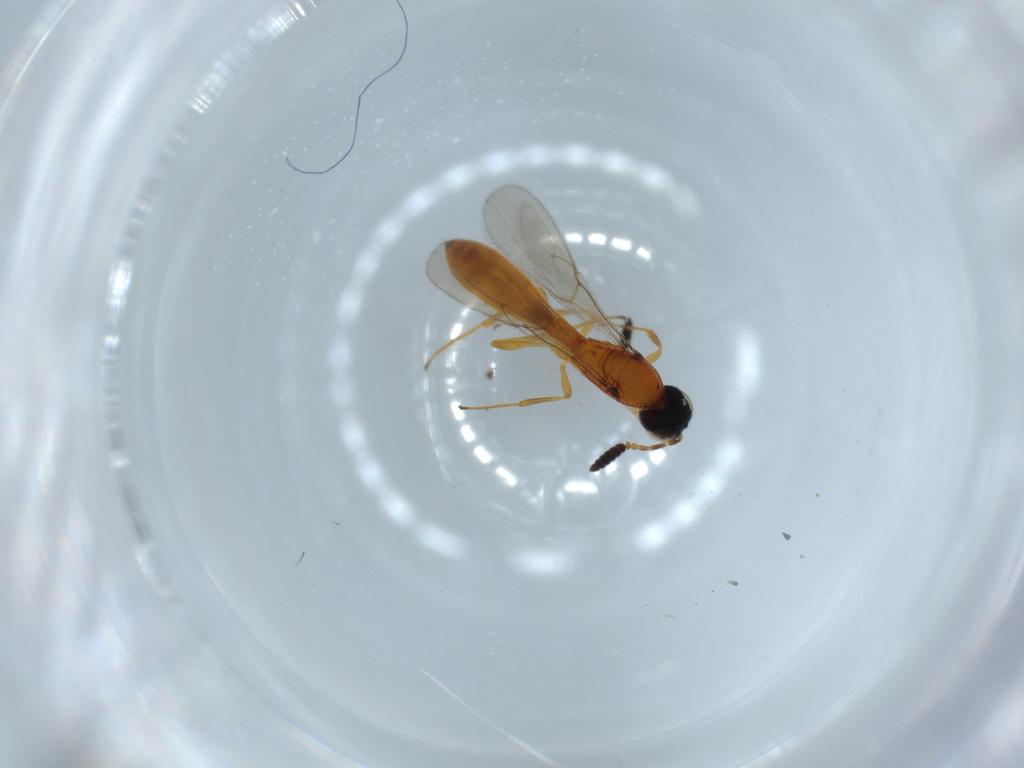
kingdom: Animalia
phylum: Arthropoda
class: Insecta
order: Hymenoptera
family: Scelionidae
